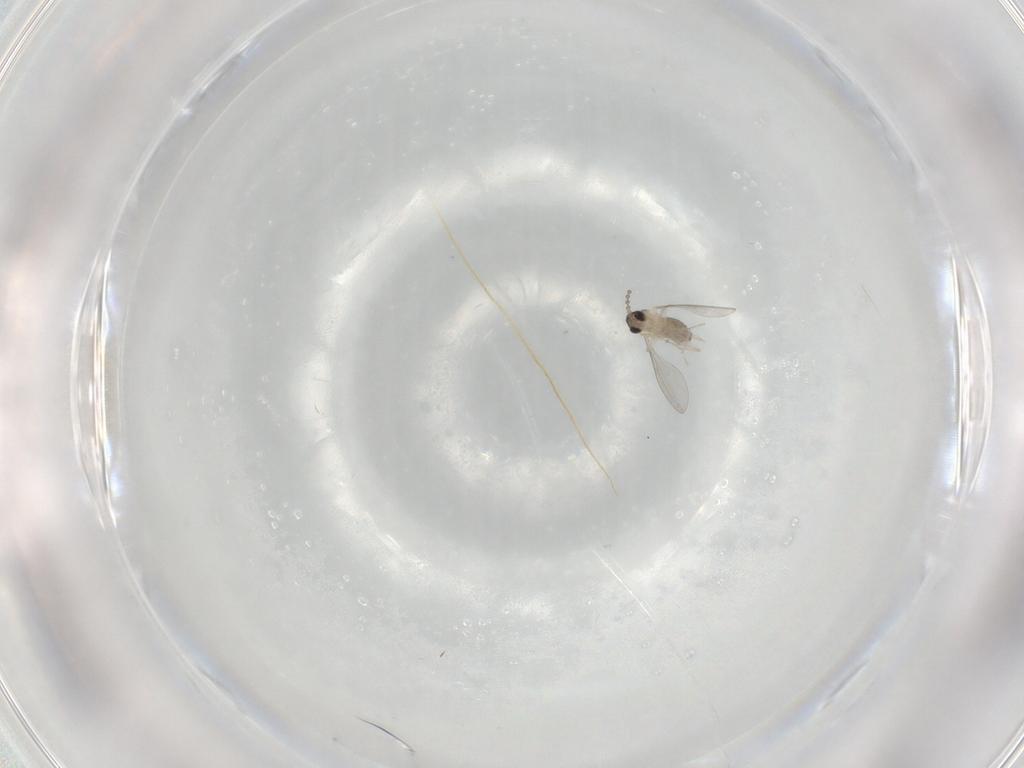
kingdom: Animalia
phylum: Arthropoda
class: Insecta
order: Diptera
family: Cecidomyiidae
